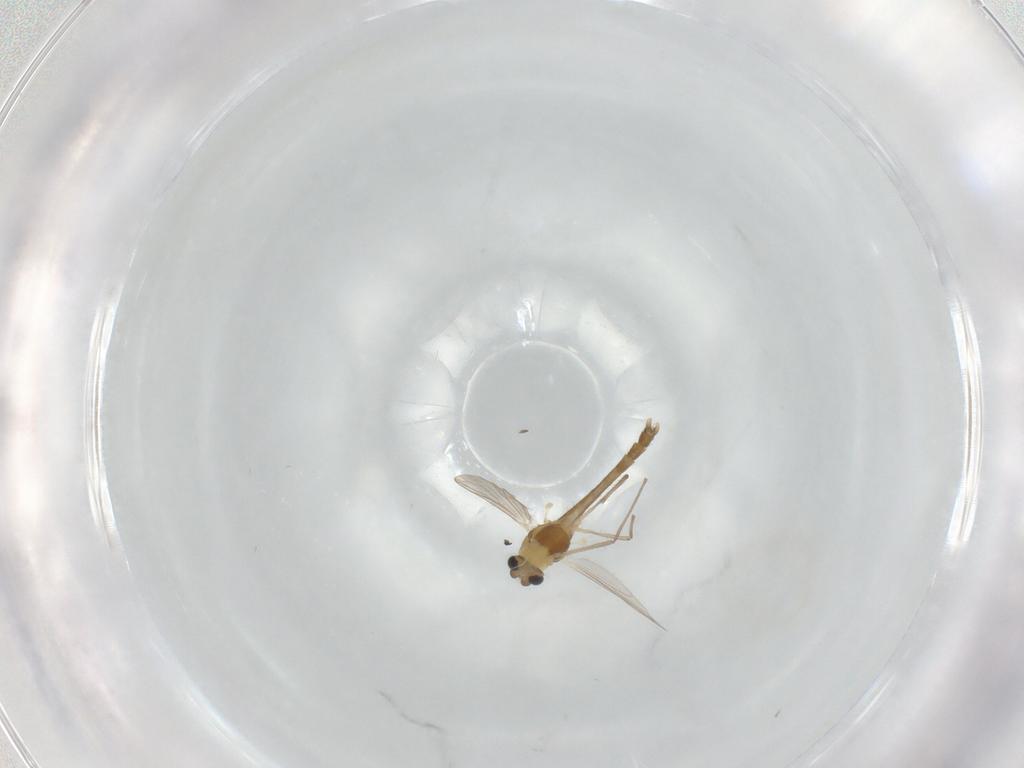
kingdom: Animalia
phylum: Arthropoda
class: Insecta
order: Diptera
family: Limoniidae
